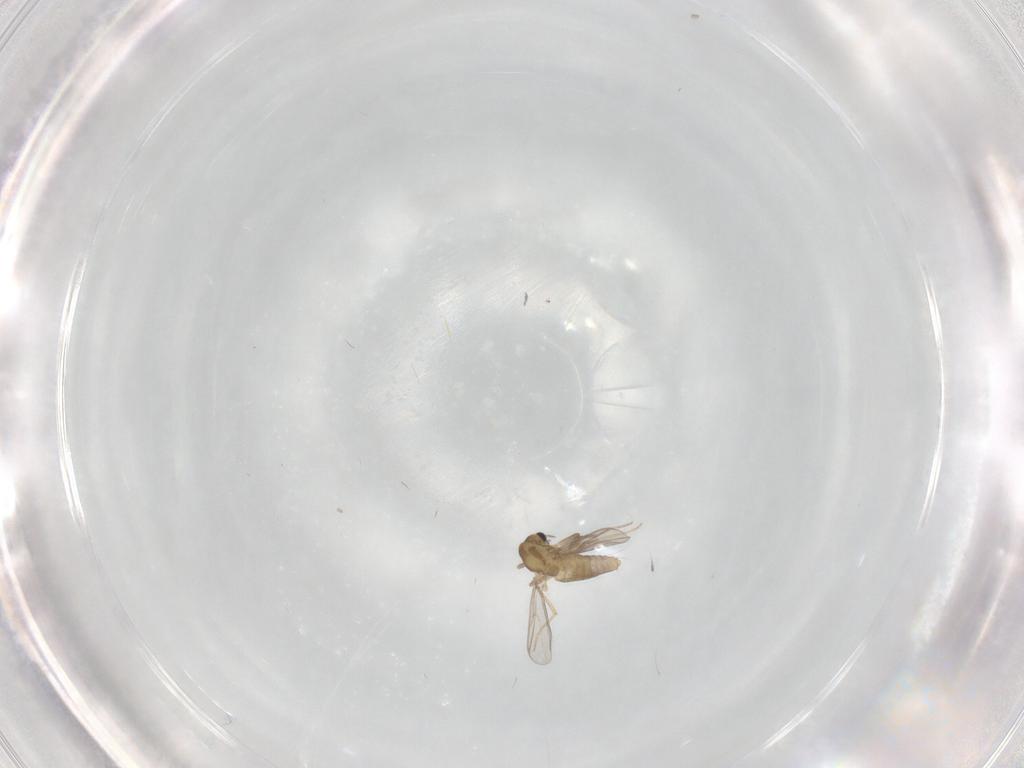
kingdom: Animalia
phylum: Arthropoda
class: Insecta
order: Diptera
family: Cecidomyiidae
